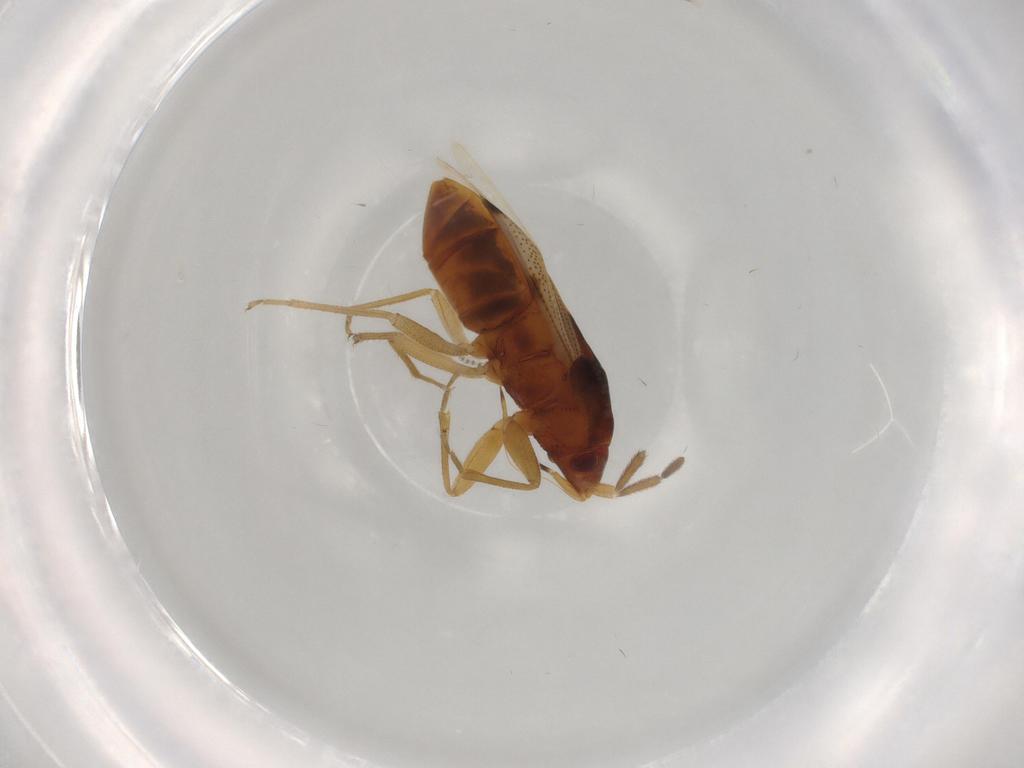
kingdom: Animalia
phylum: Arthropoda
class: Insecta
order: Hemiptera
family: Rhyparochromidae
